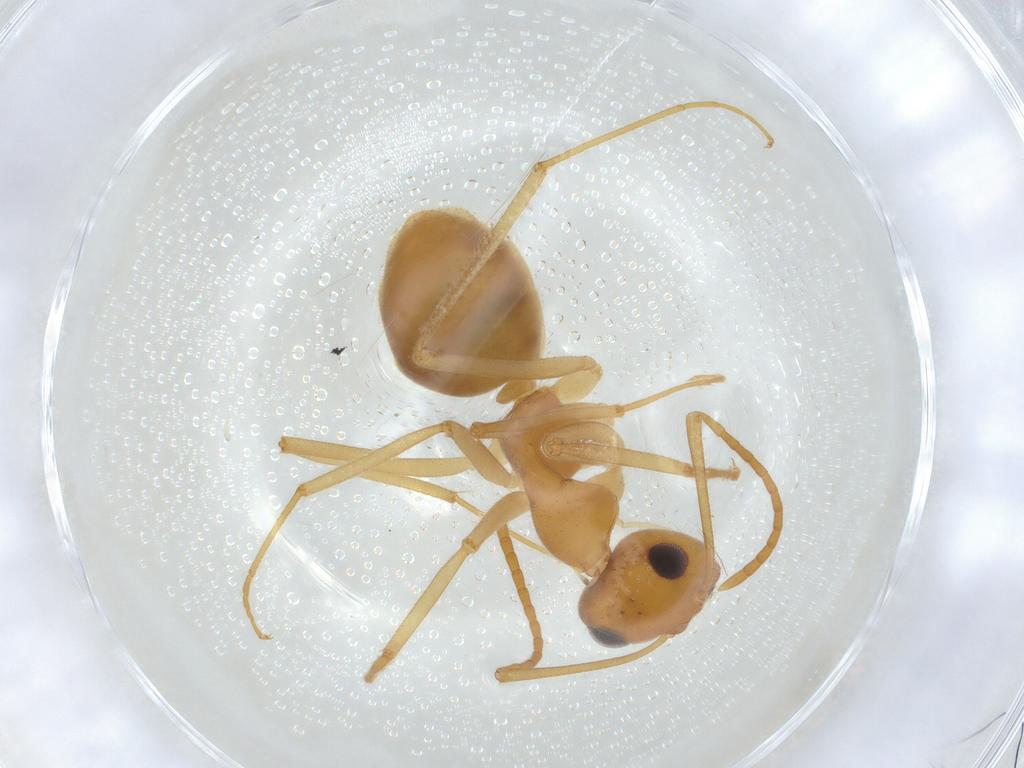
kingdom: Animalia
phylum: Arthropoda
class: Insecta
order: Hymenoptera
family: Formicidae
